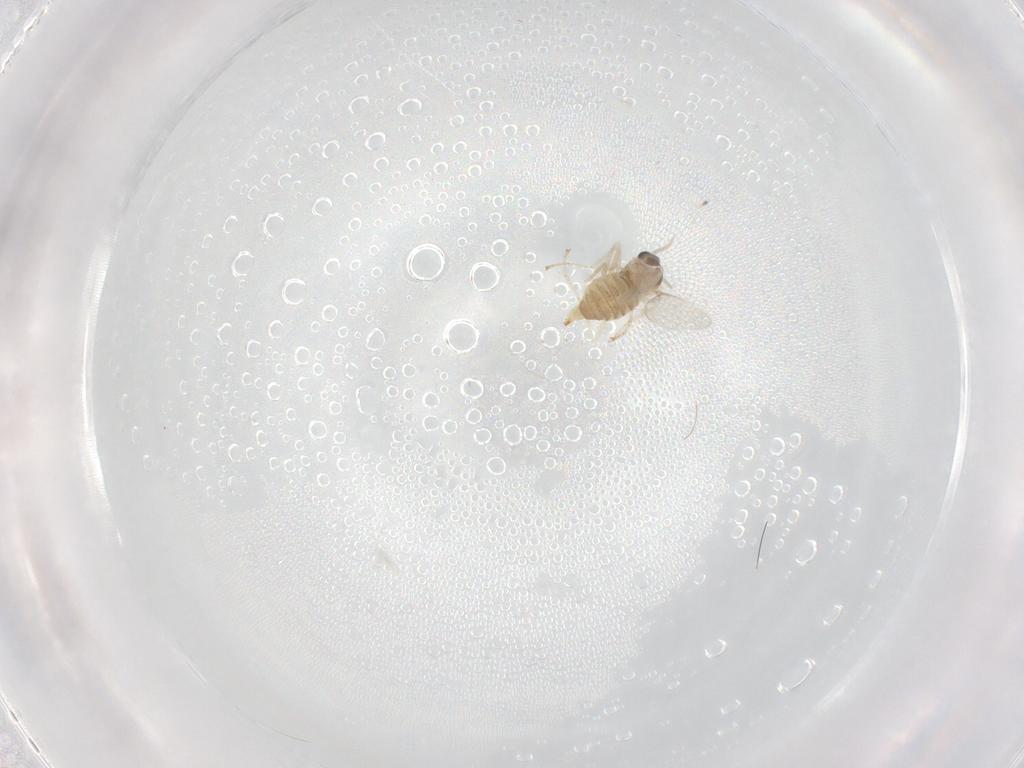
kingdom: Animalia
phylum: Arthropoda
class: Insecta
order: Diptera
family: Cecidomyiidae
